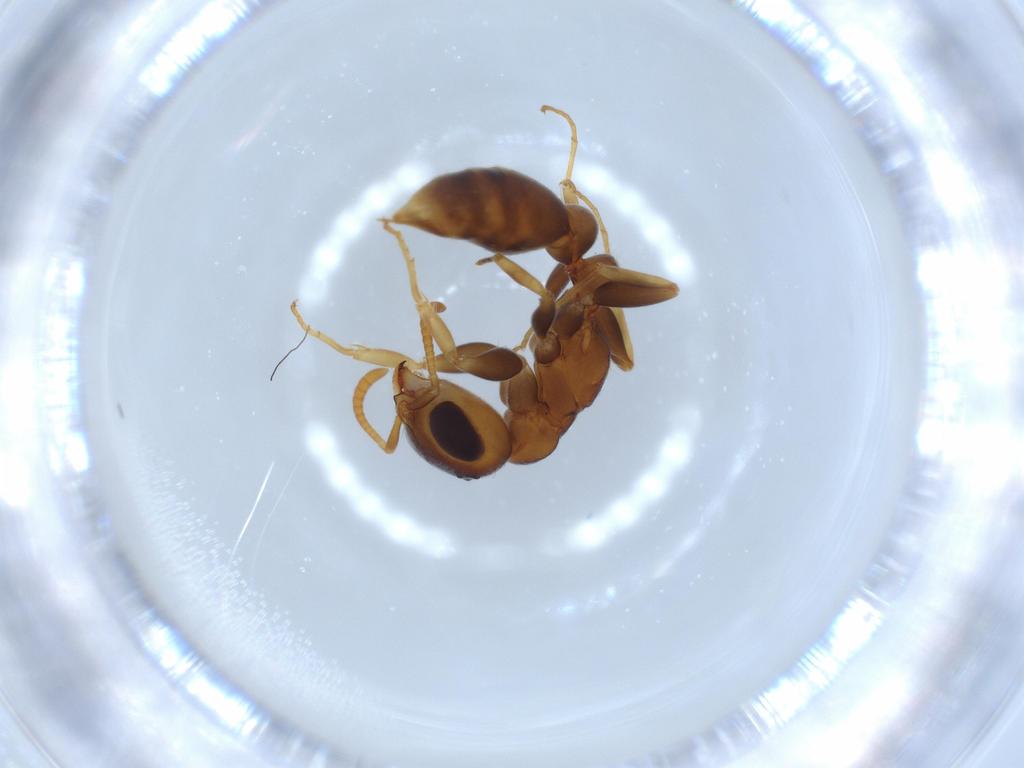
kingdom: Animalia
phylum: Arthropoda
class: Insecta
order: Hymenoptera
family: Formicidae
